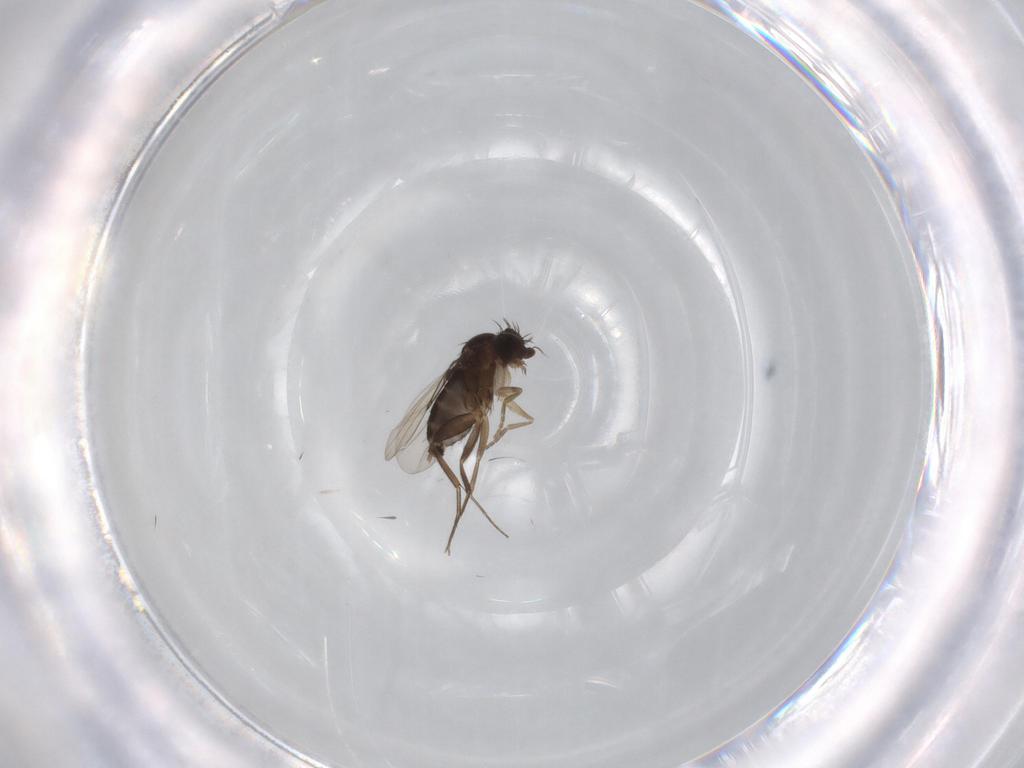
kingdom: Animalia
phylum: Arthropoda
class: Insecta
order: Diptera
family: Phoridae
